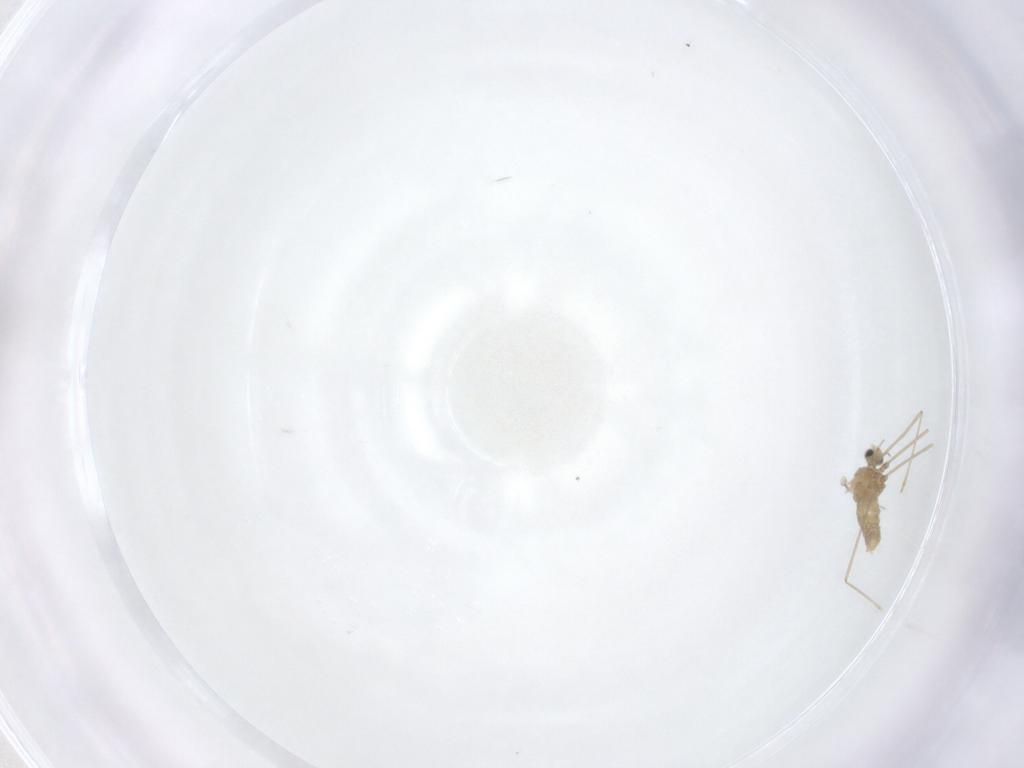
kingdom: Animalia
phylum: Arthropoda
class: Insecta
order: Diptera
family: Cecidomyiidae
